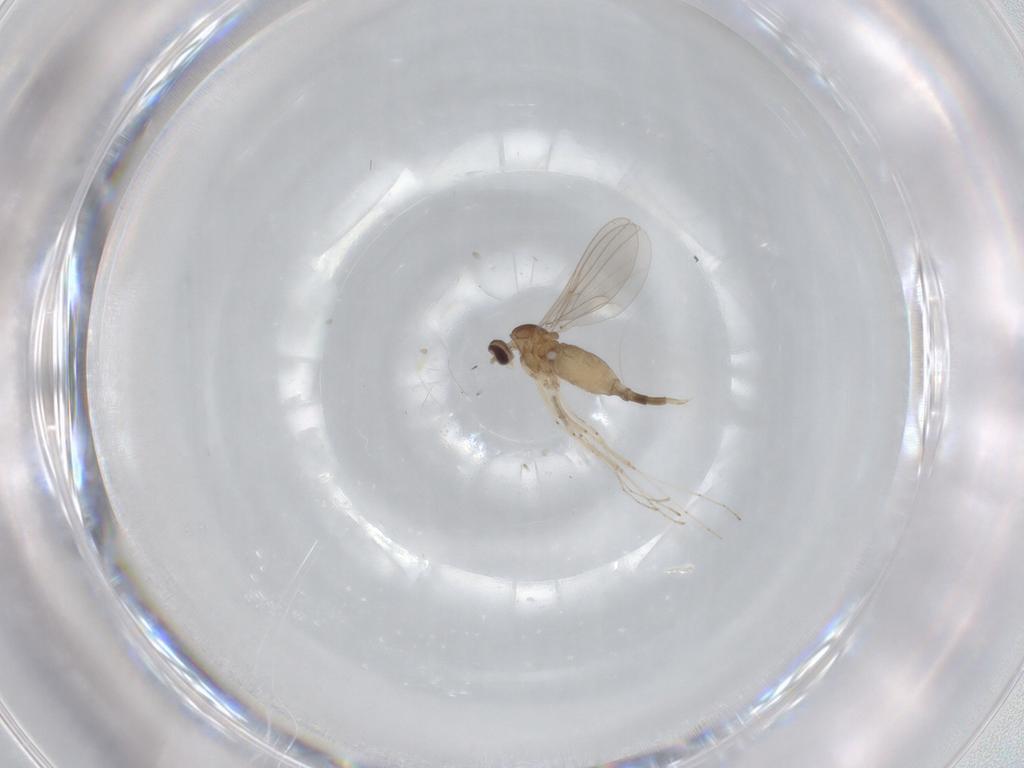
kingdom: Animalia
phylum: Arthropoda
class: Insecta
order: Diptera
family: Cecidomyiidae
